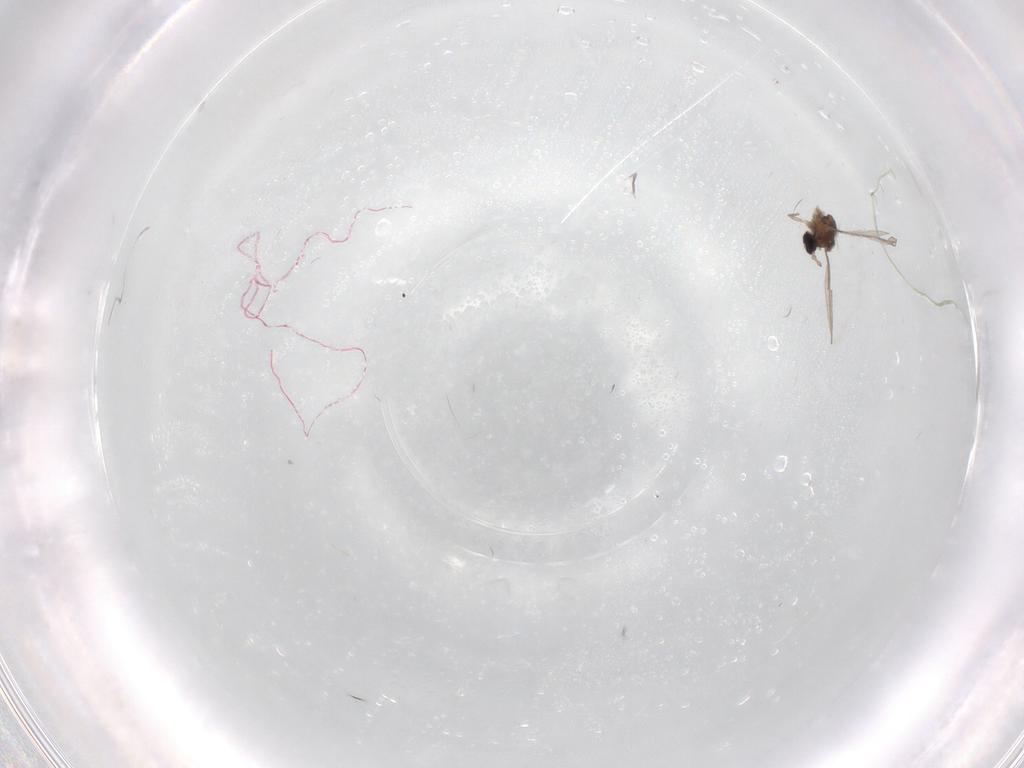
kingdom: Animalia
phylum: Arthropoda
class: Insecta
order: Diptera
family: Cecidomyiidae
